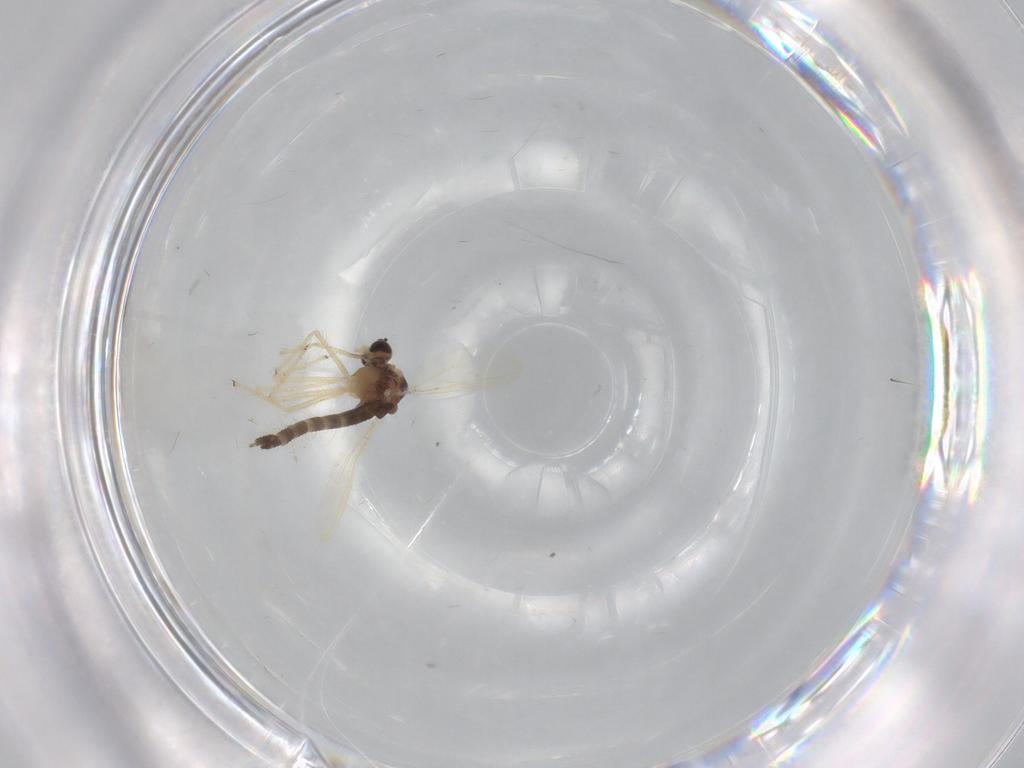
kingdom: Animalia
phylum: Arthropoda
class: Insecta
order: Diptera
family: Chironomidae
